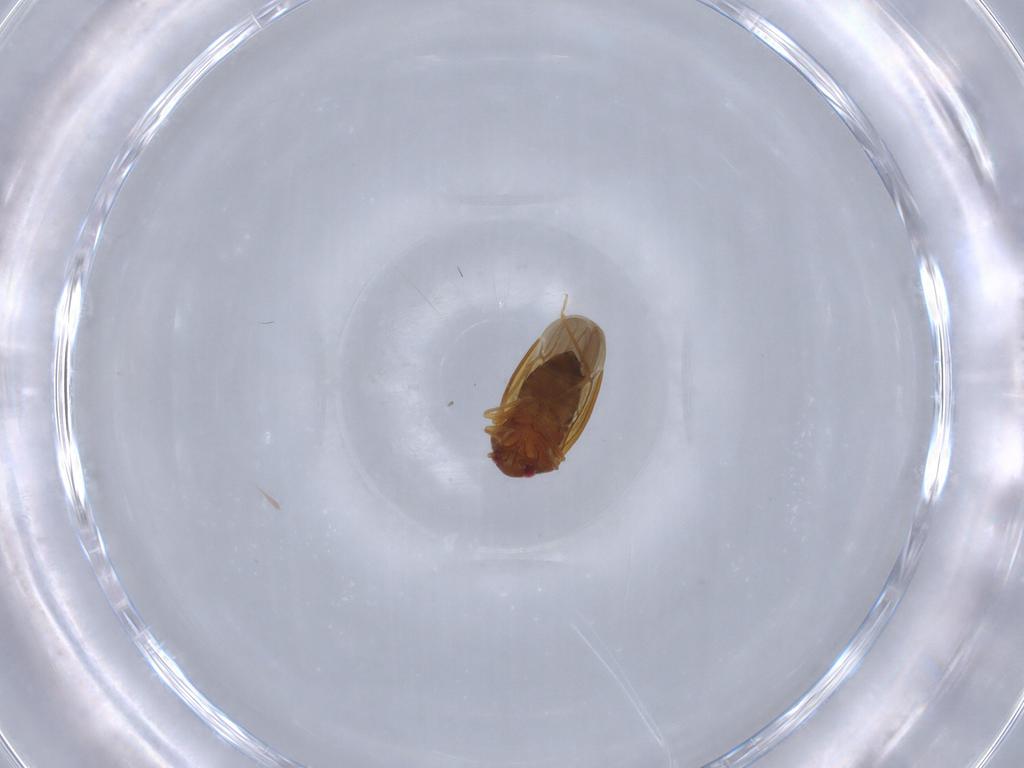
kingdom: Animalia
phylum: Arthropoda
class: Insecta
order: Hemiptera
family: Schizopteridae
